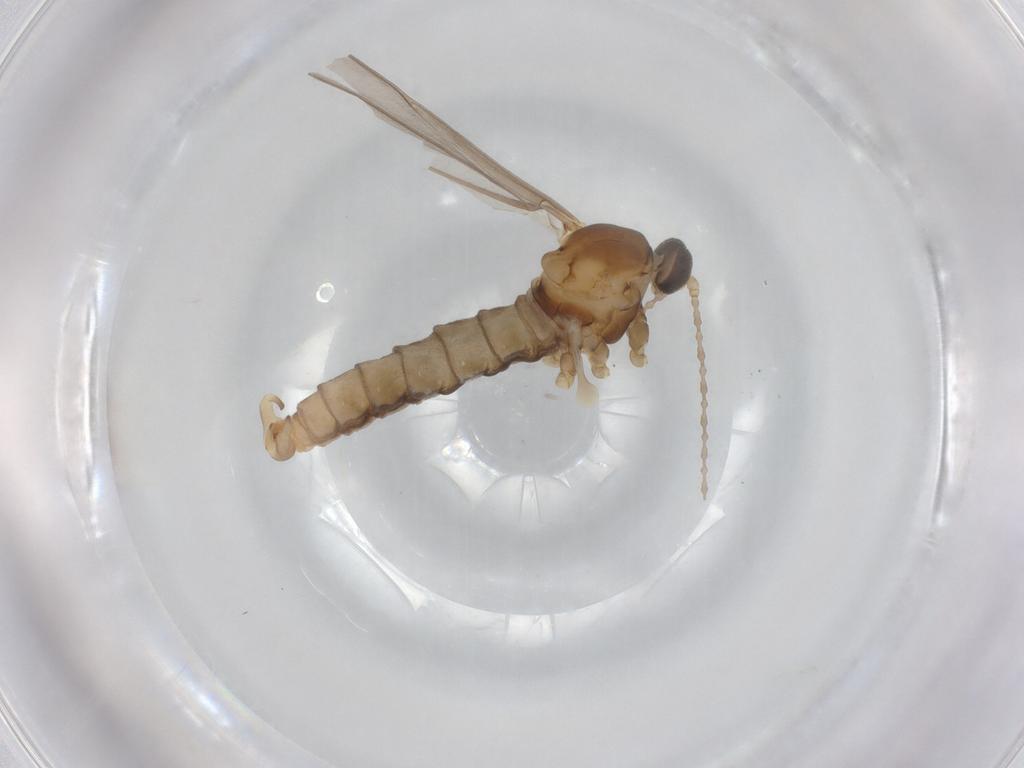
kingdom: Animalia
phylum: Arthropoda
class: Insecta
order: Diptera
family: Cecidomyiidae
